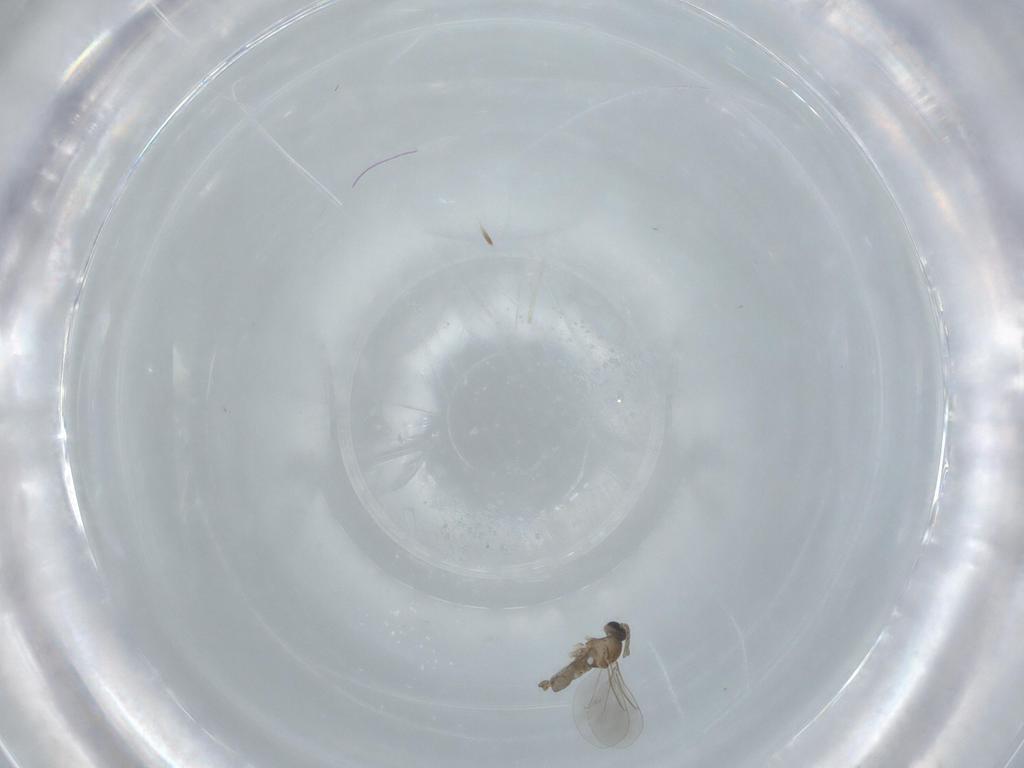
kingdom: Animalia
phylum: Arthropoda
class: Insecta
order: Diptera
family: Cecidomyiidae
